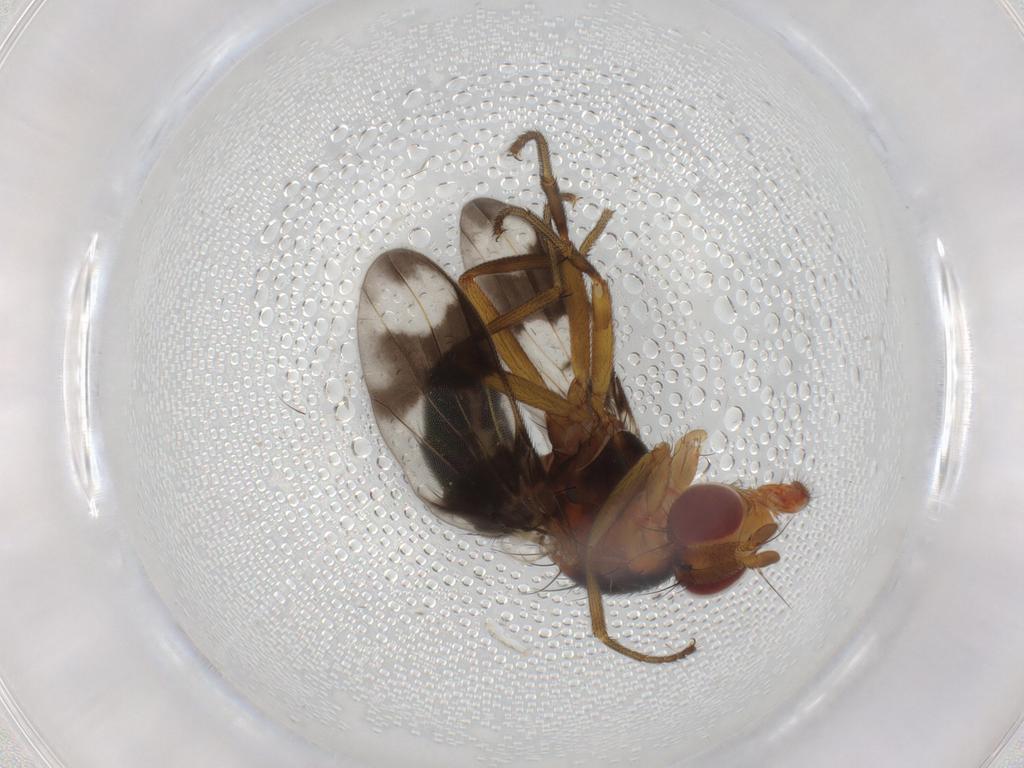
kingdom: Animalia
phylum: Arthropoda
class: Insecta
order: Diptera
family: Richardiidae
